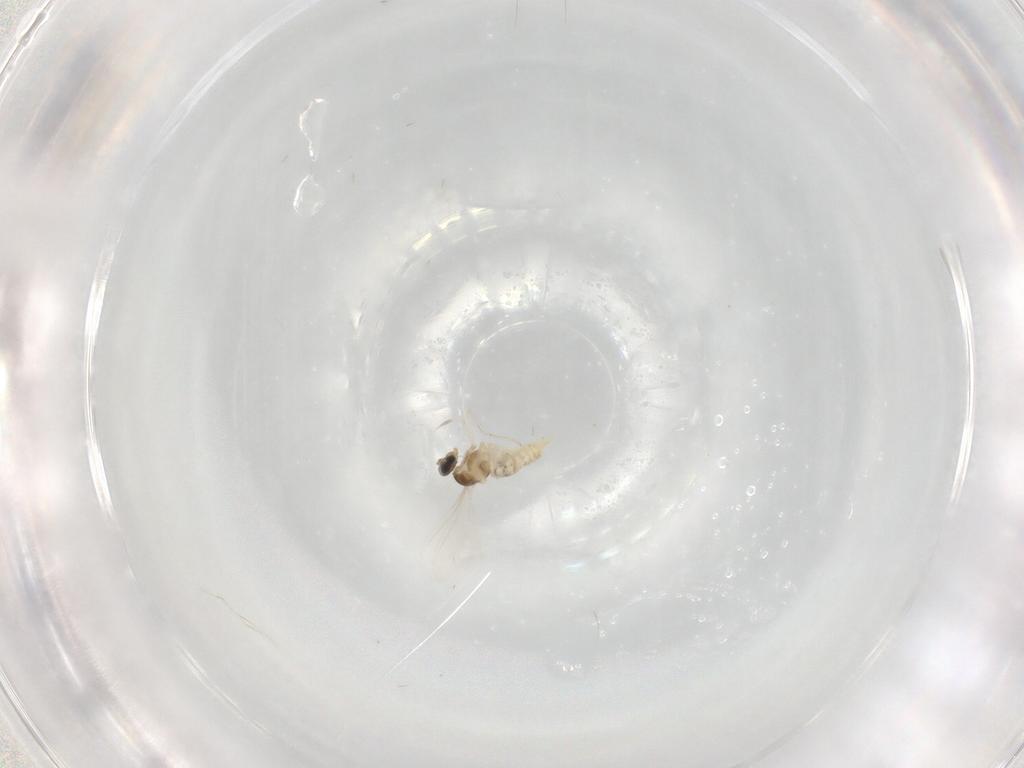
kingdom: Animalia
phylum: Arthropoda
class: Insecta
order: Diptera
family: Cecidomyiidae
